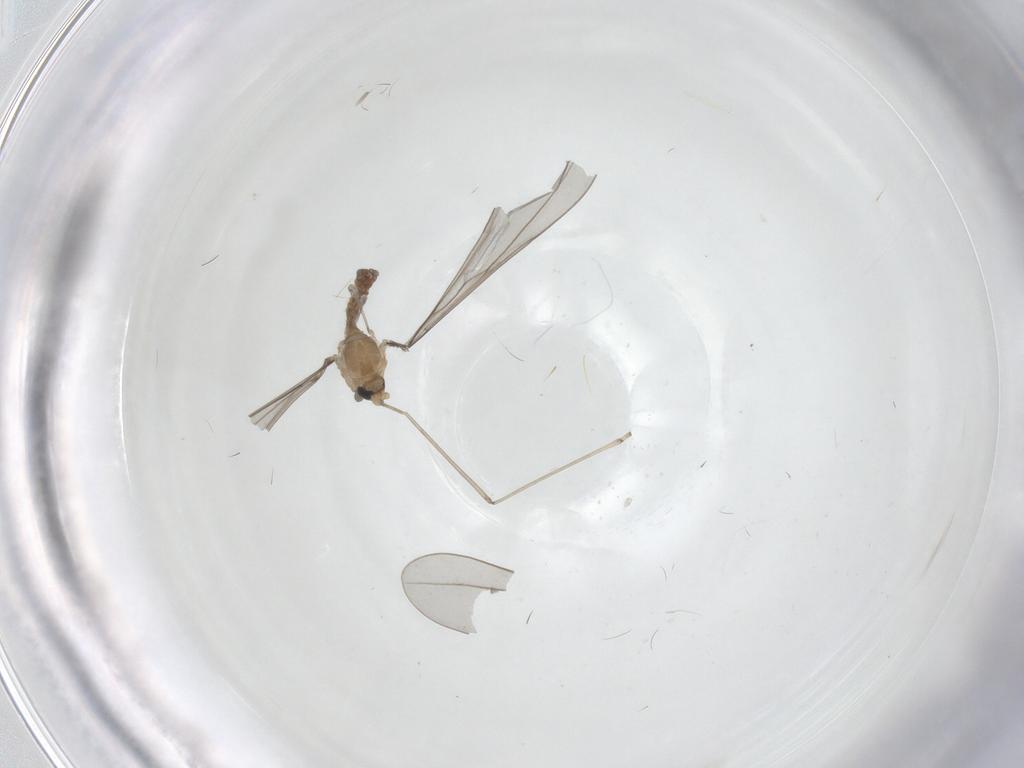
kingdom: Animalia
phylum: Arthropoda
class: Insecta
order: Diptera
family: Cecidomyiidae
